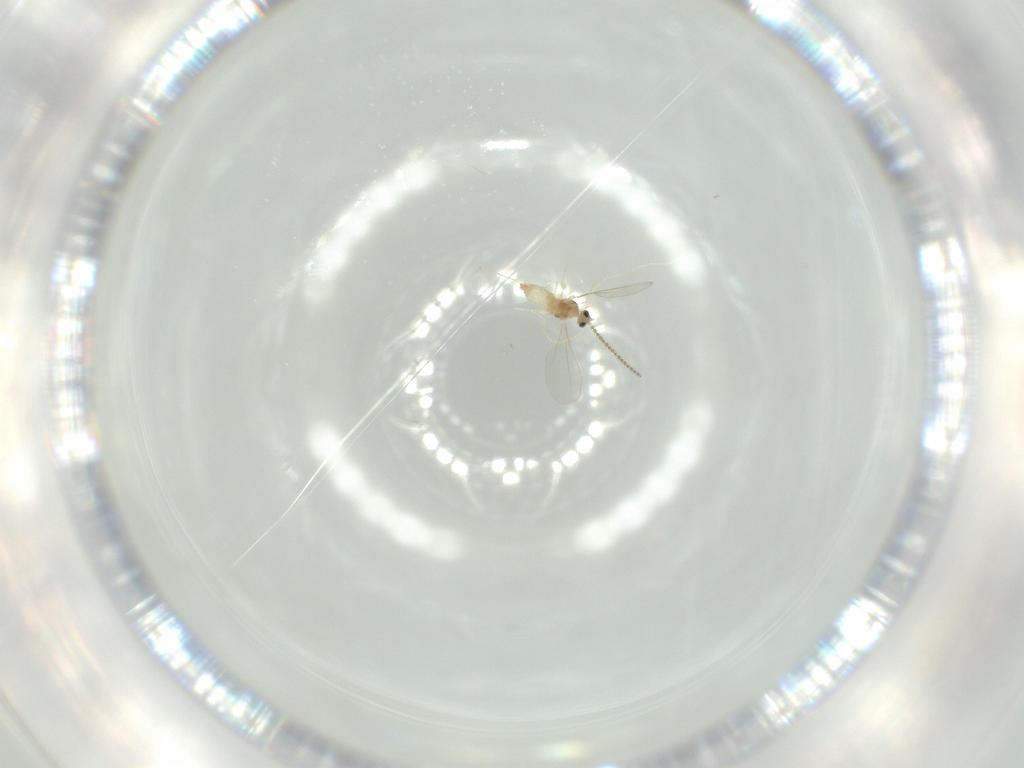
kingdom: Animalia
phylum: Arthropoda
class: Insecta
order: Diptera
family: Cecidomyiidae
